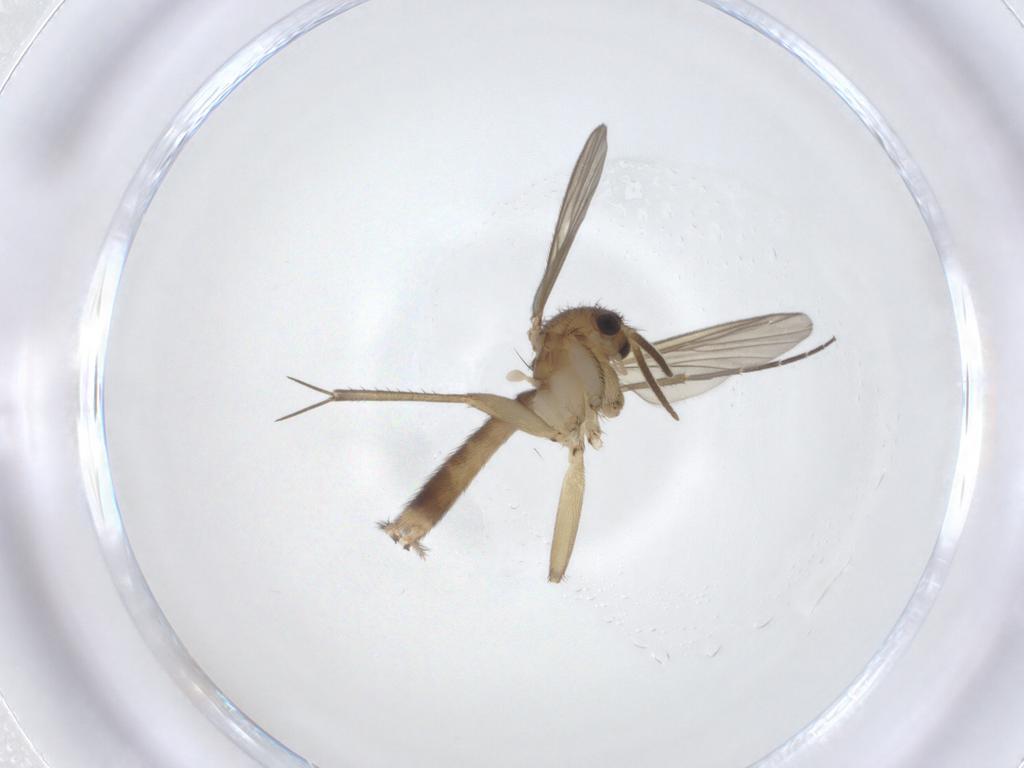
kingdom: Animalia
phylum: Arthropoda
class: Insecta
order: Diptera
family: Mycetophilidae
